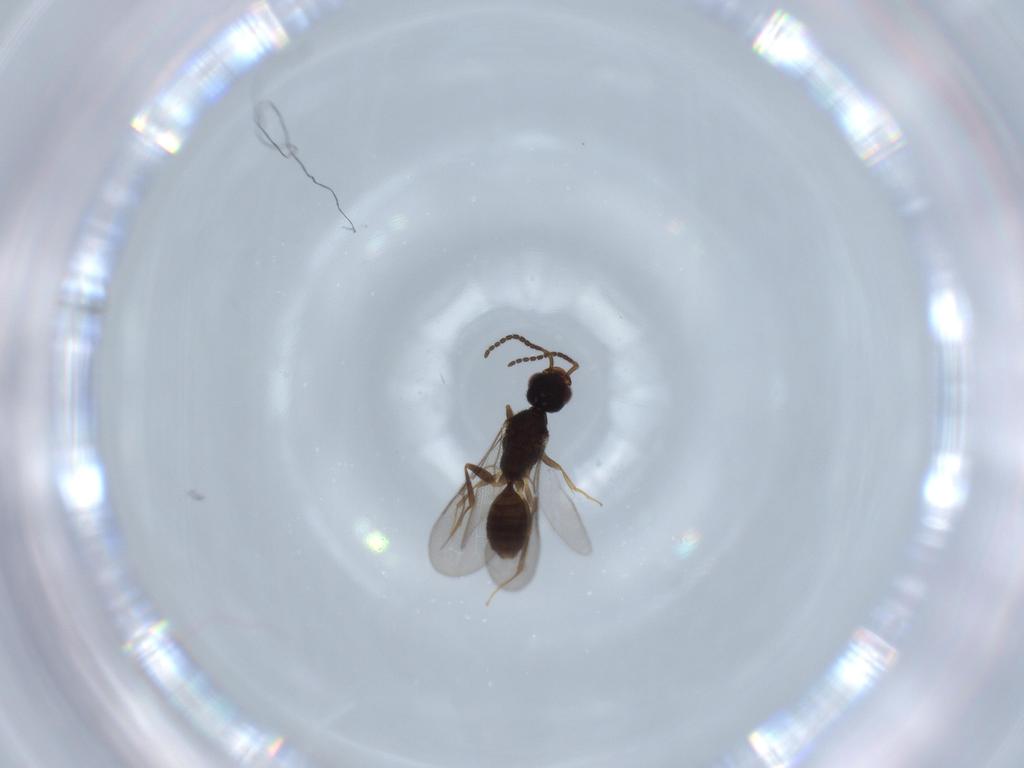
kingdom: Animalia
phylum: Arthropoda
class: Insecta
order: Hymenoptera
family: Bethylidae
